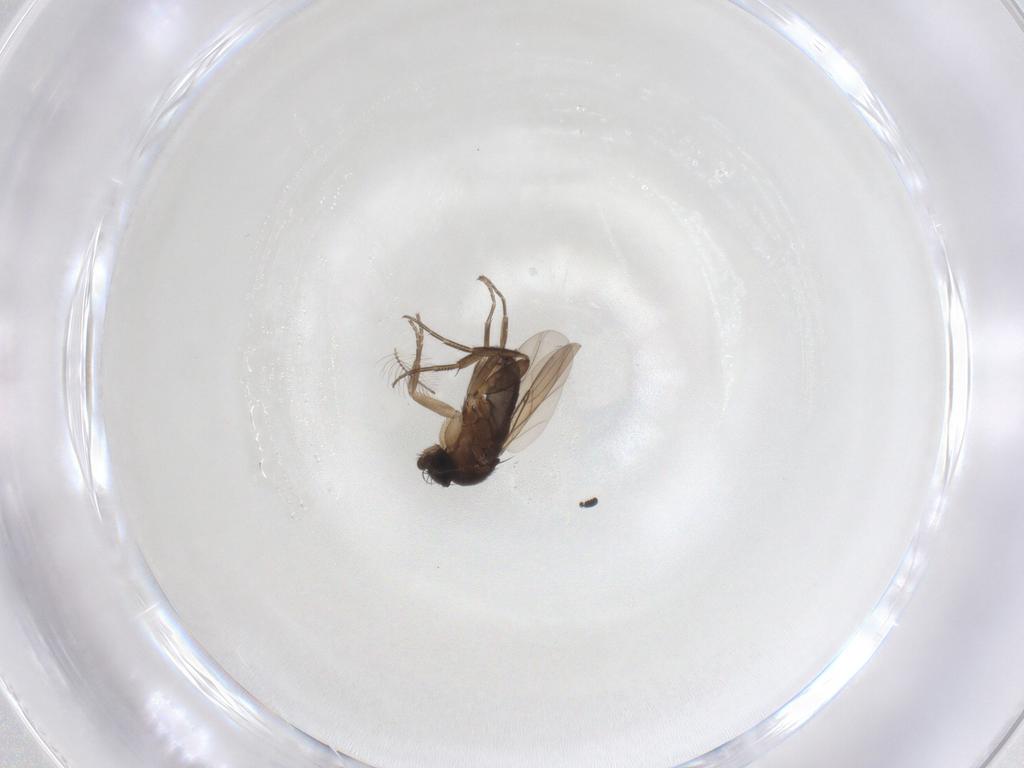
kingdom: Animalia
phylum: Arthropoda
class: Insecta
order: Diptera
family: Phoridae
